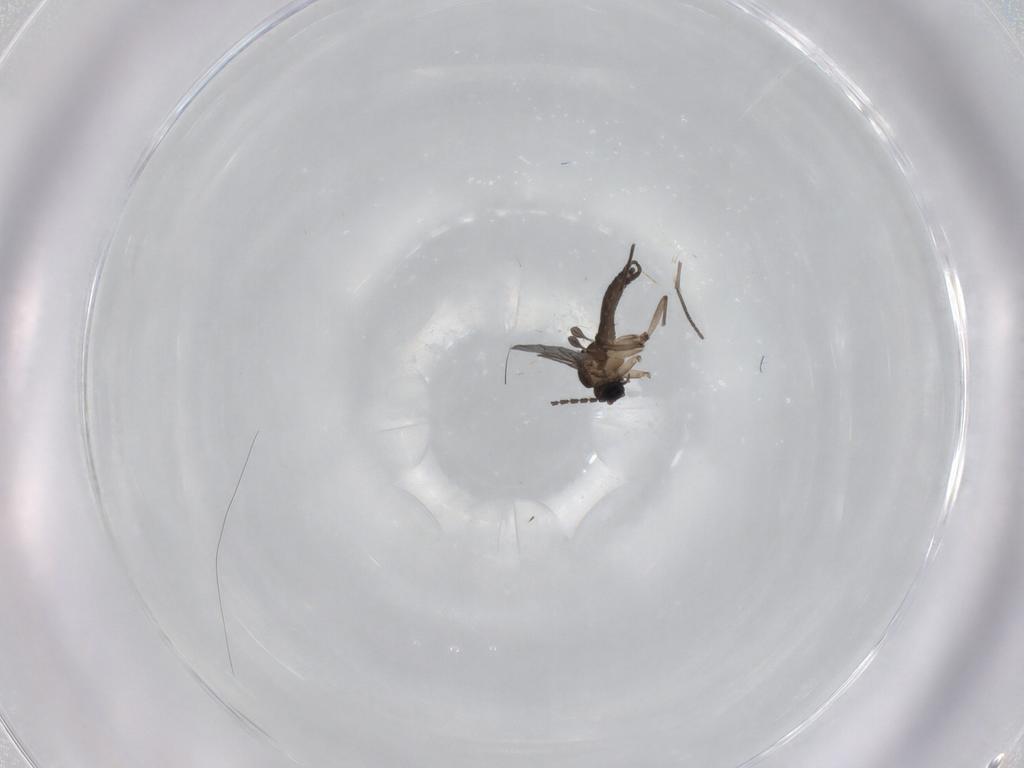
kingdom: Animalia
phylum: Arthropoda
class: Insecta
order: Diptera
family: Sciaridae
